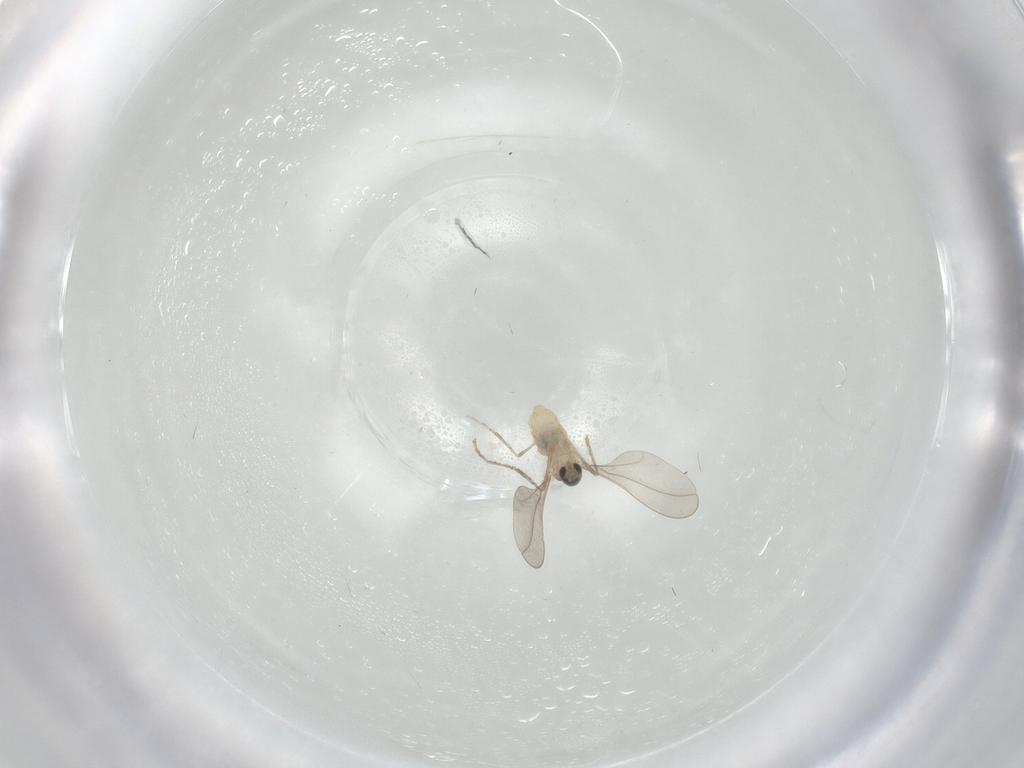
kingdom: Animalia
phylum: Arthropoda
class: Insecta
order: Diptera
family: Cecidomyiidae
